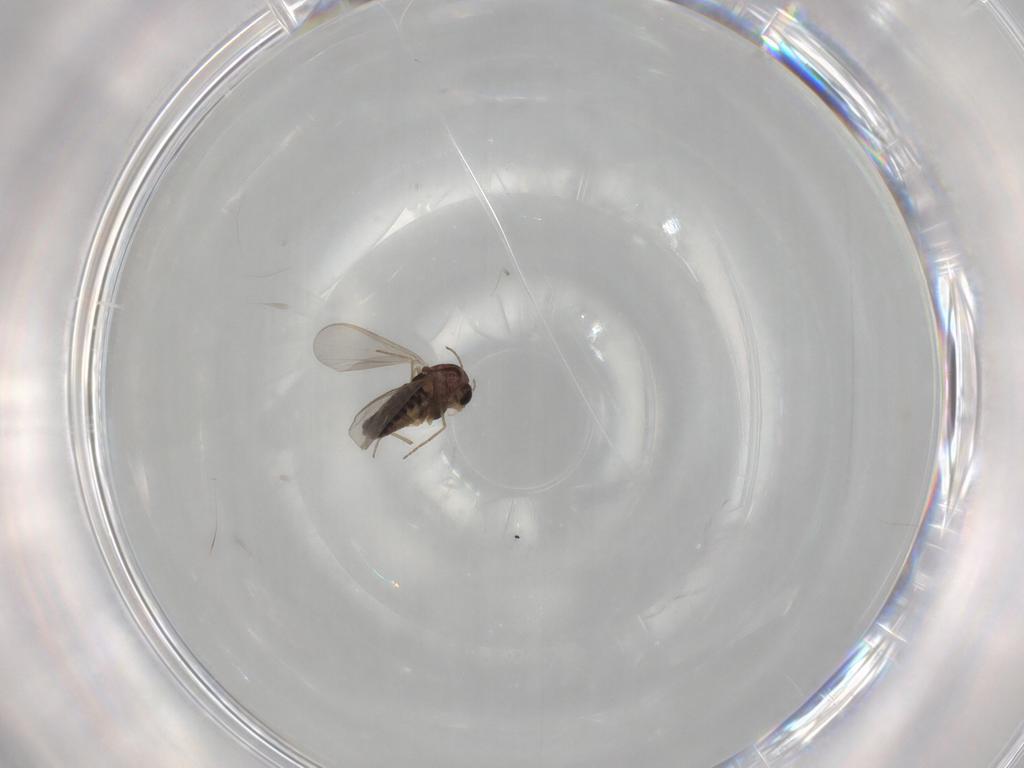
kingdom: Animalia
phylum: Arthropoda
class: Insecta
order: Diptera
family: Chironomidae
